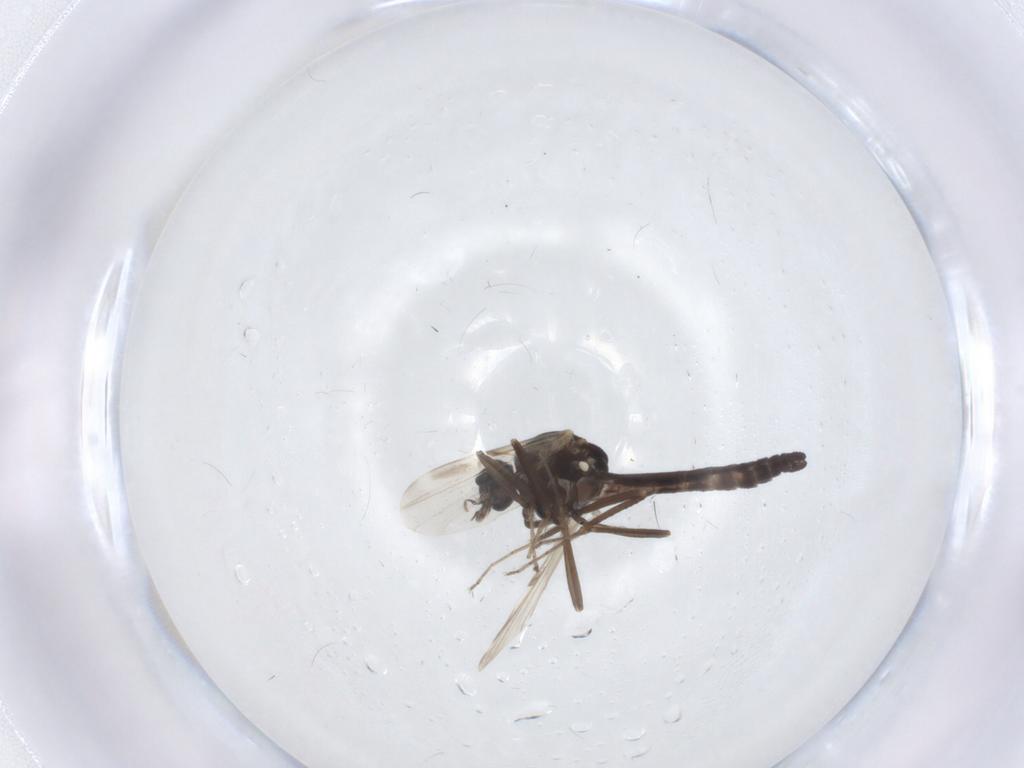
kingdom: Animalia
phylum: Arthropoda
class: Insecta
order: Diptera
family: Ceratopogonidae
